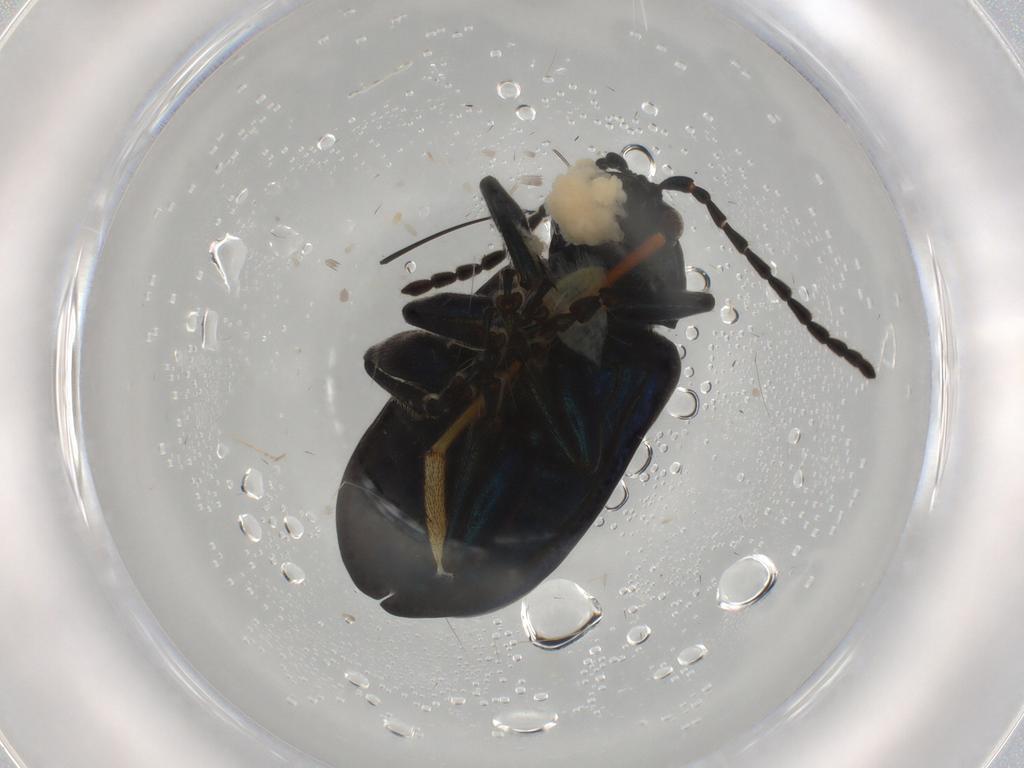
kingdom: Animalia
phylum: Arthropoda
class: Insecta
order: Coleoptera
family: Chrysomelidae
